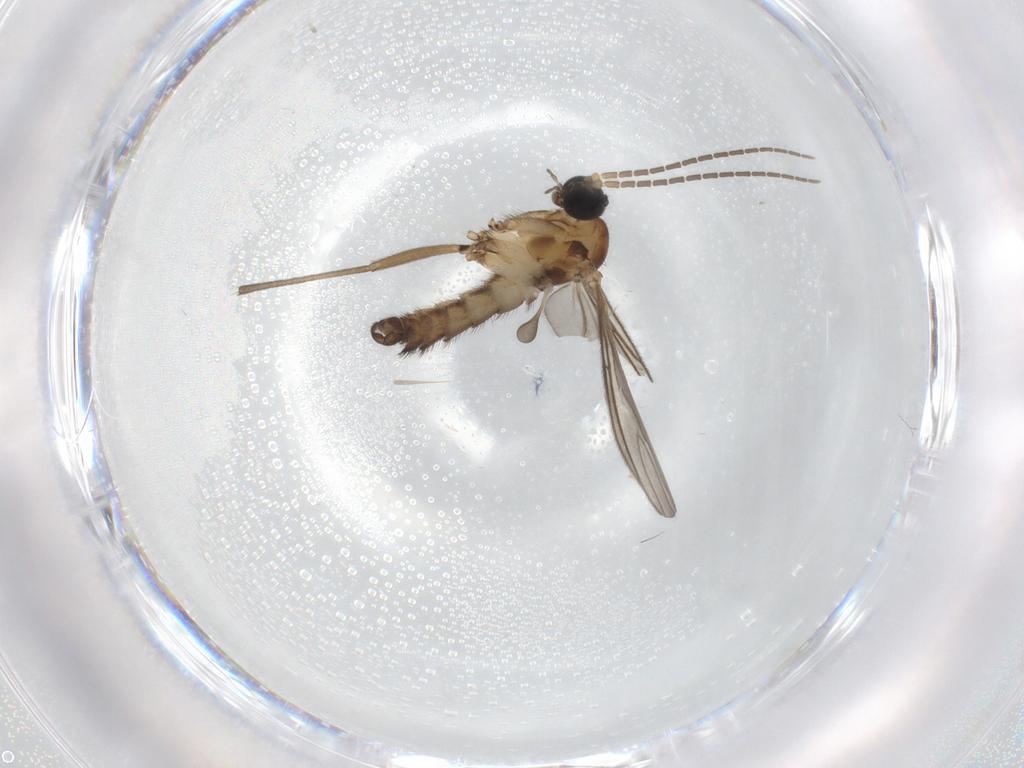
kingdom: Animalia
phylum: Arthropoda
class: Insecta
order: Diptera
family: Sciaridae
